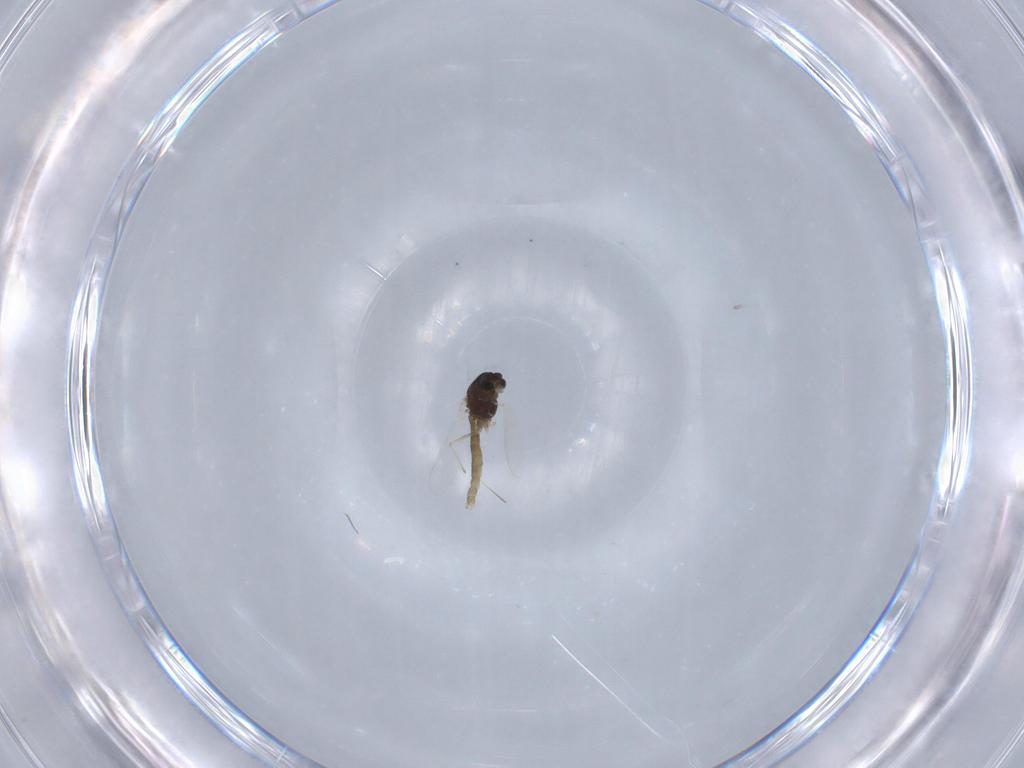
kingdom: Animalia
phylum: Arthropoda
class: Insecta
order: Diptera
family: Chironomidae
